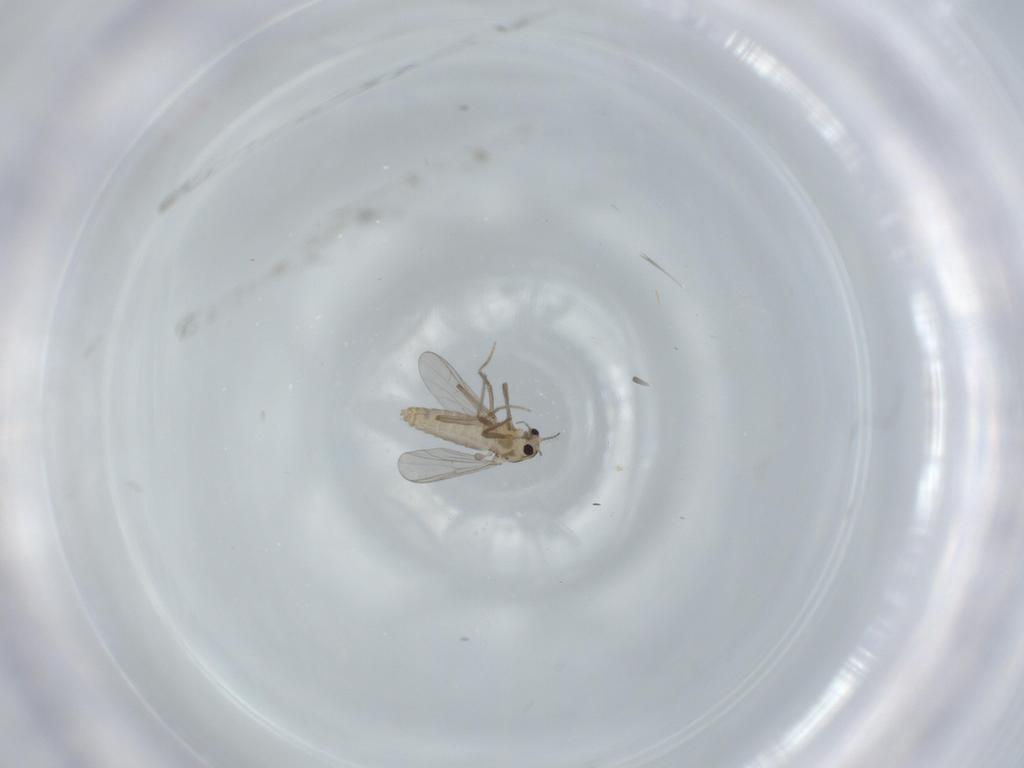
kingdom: Animalia
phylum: Arthropoda
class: Insecta
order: Diptera
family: Chironomidae
